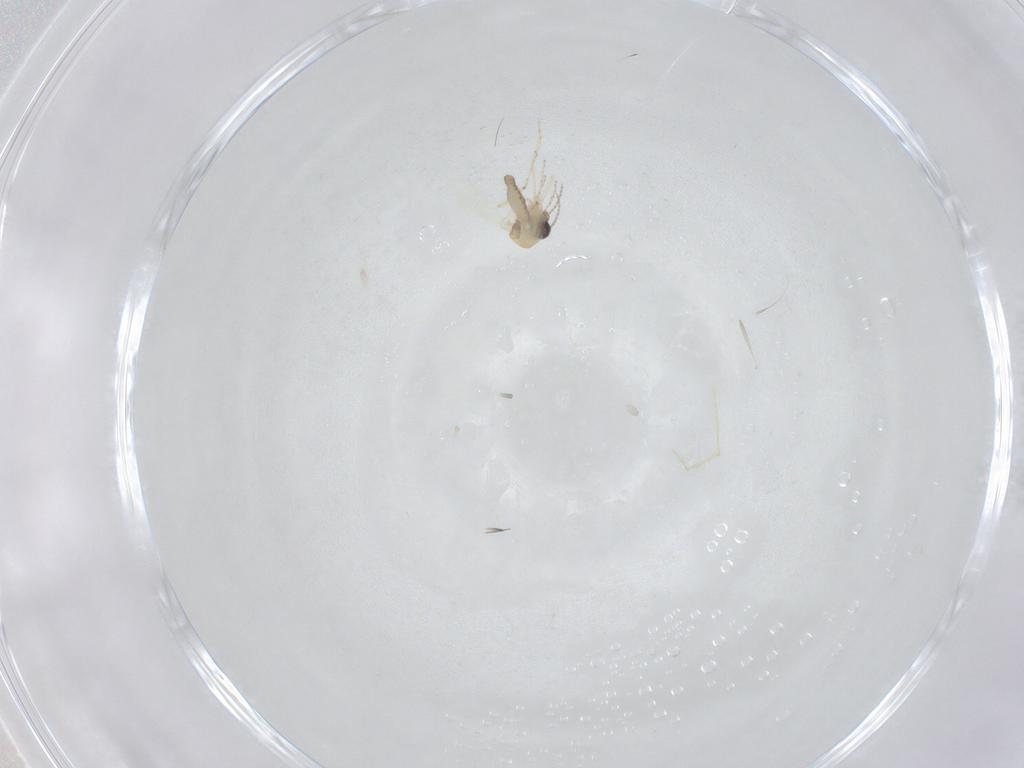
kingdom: Animalia
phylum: Arthropoda
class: Insecta
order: Diptera
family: Ceratopogonidae
